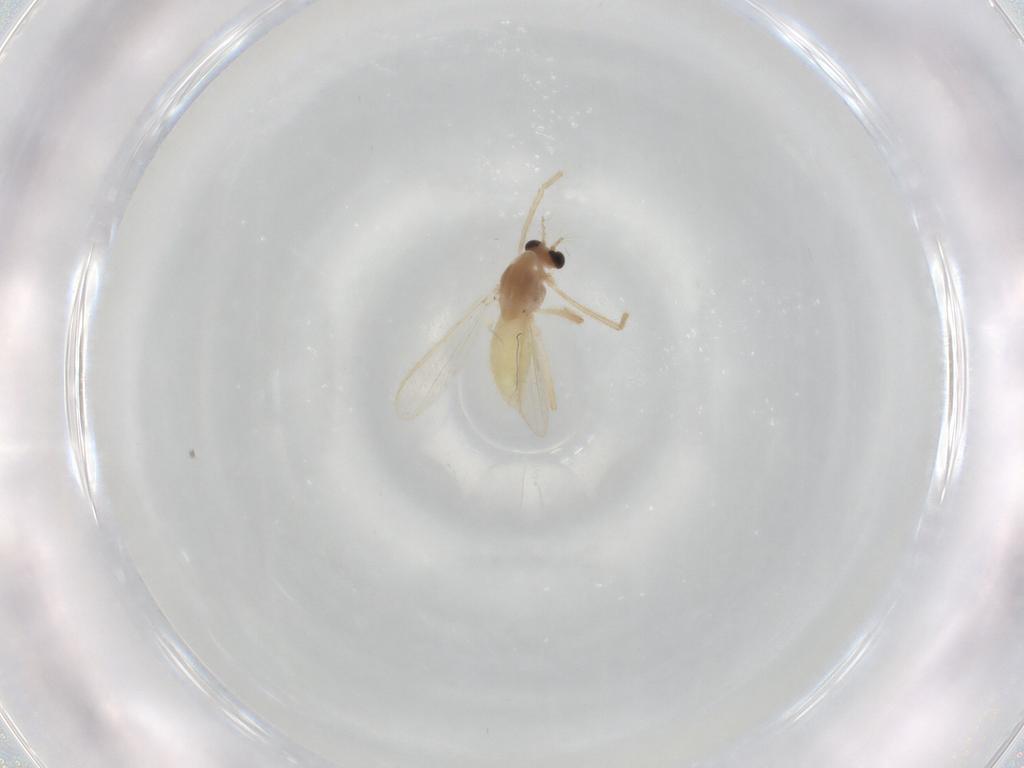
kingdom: Animalia
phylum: Arthropoda
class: Insecta
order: Diptera
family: Chironomidae
